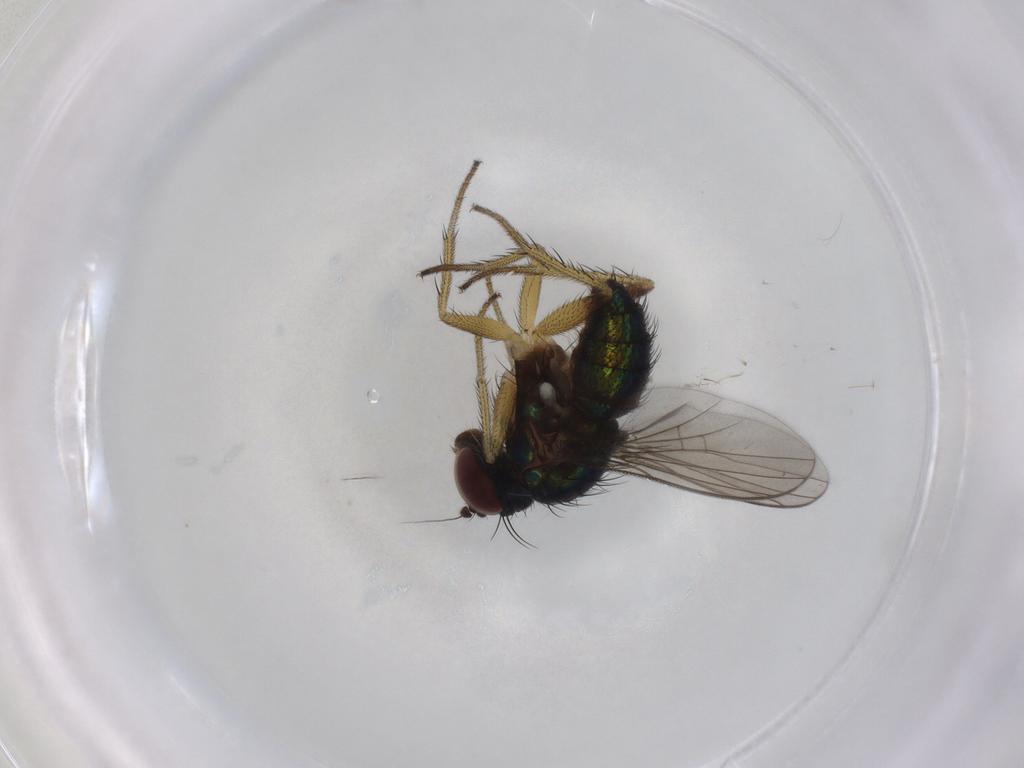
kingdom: Animalia
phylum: Arthropoda
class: Insecta
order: Diptera
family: Dolichopodidae
